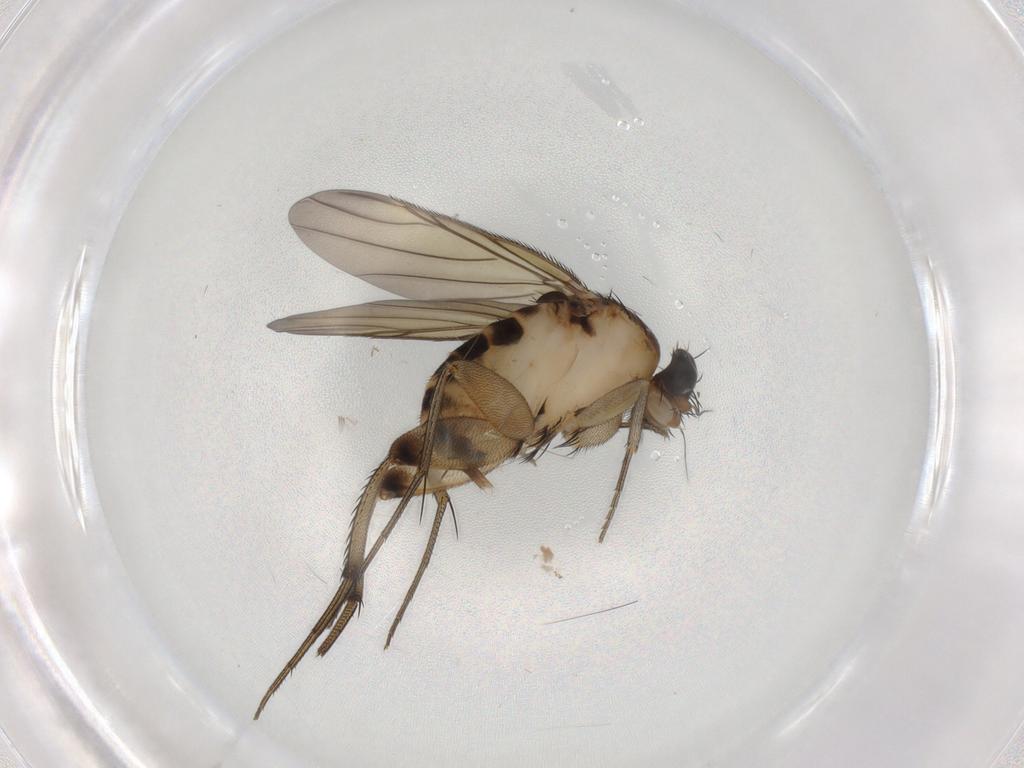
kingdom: Animalia
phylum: Arthropoda
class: Insecta
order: Diptera
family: Phoridae
